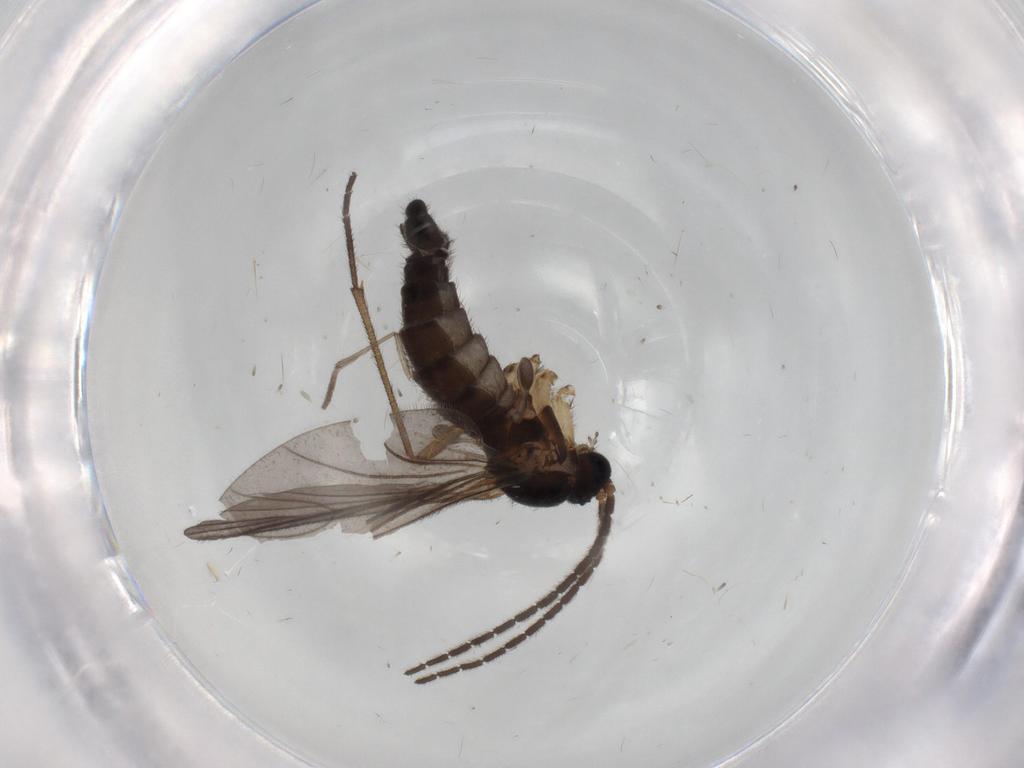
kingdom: Animalia
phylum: Arthropoda
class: Insecta
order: Diptera
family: Sciaridae
